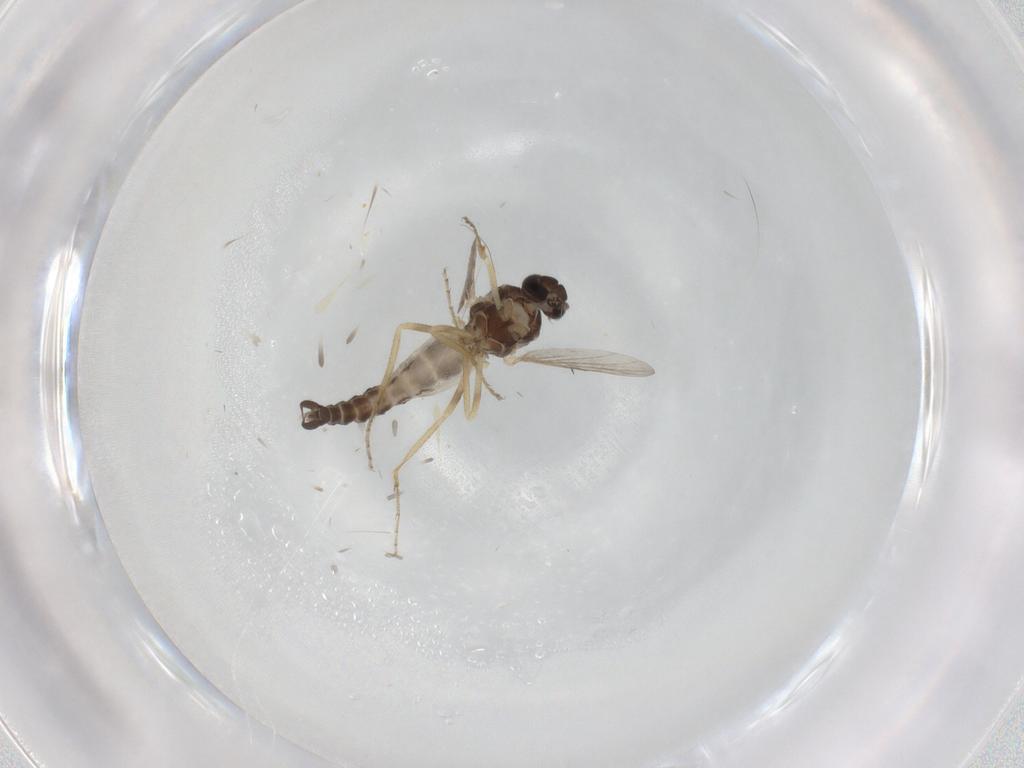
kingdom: Animalia
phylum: Arthropoda
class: Insecta
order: Diptera
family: Ceratopogonidae
